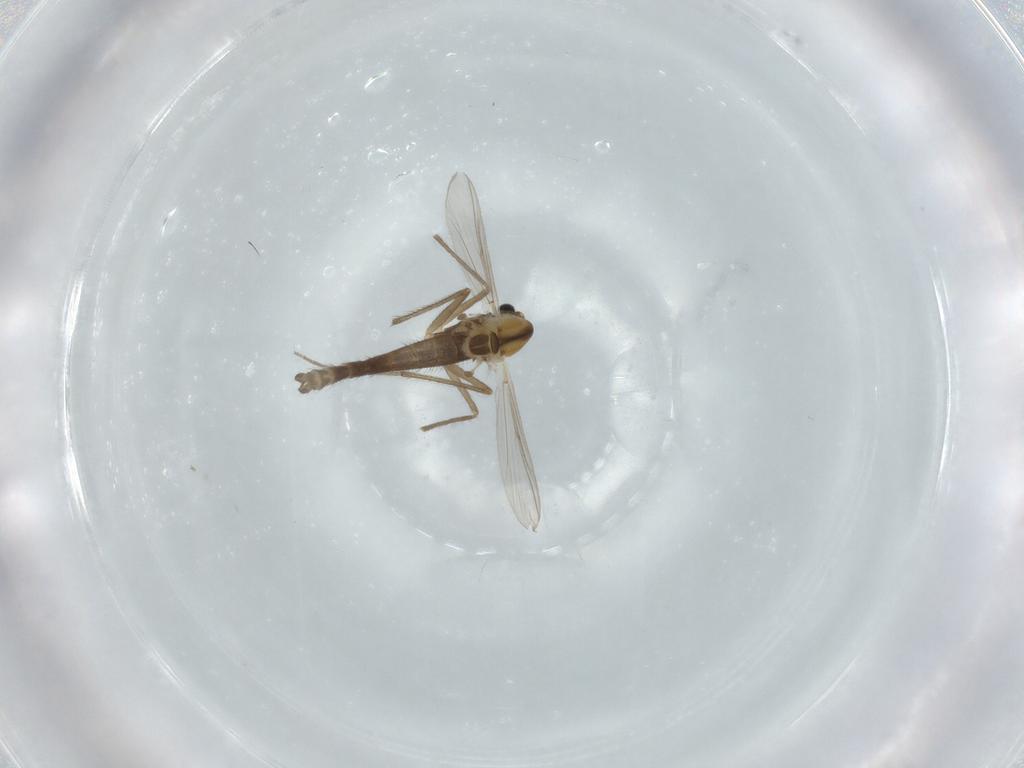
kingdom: Animalia
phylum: Arthropoda
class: Insecta
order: Diptera
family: Chironomidae
